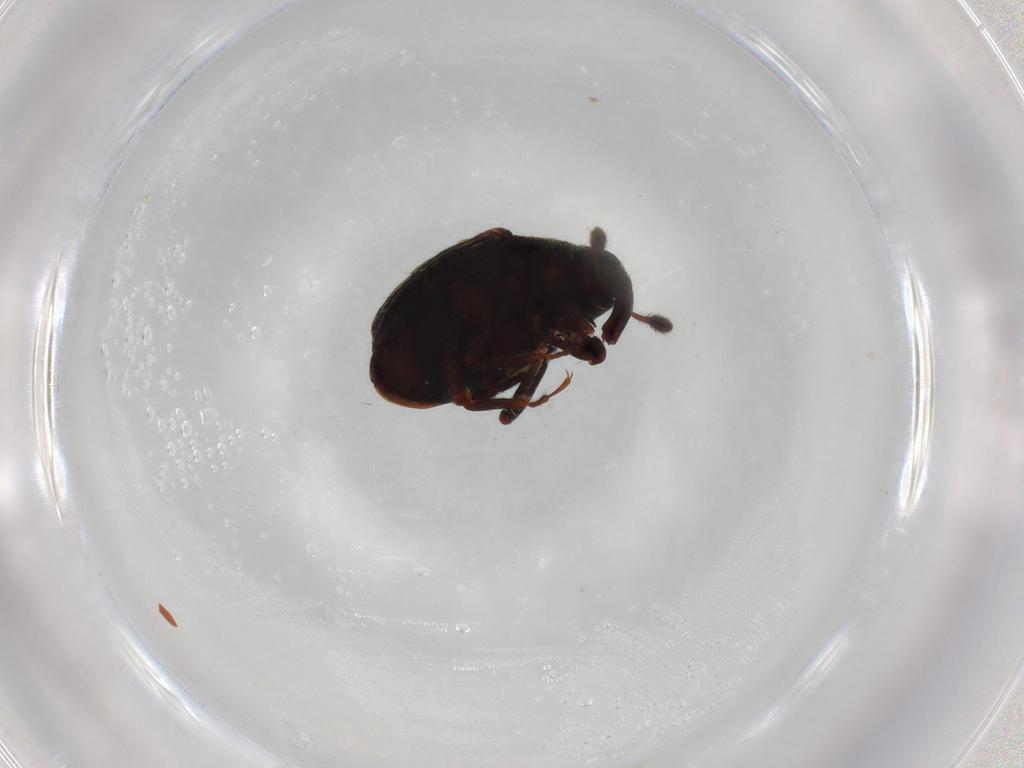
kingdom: Animalia
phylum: Arthropoda
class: Insecta
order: Coleoptera
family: Curculionidae
